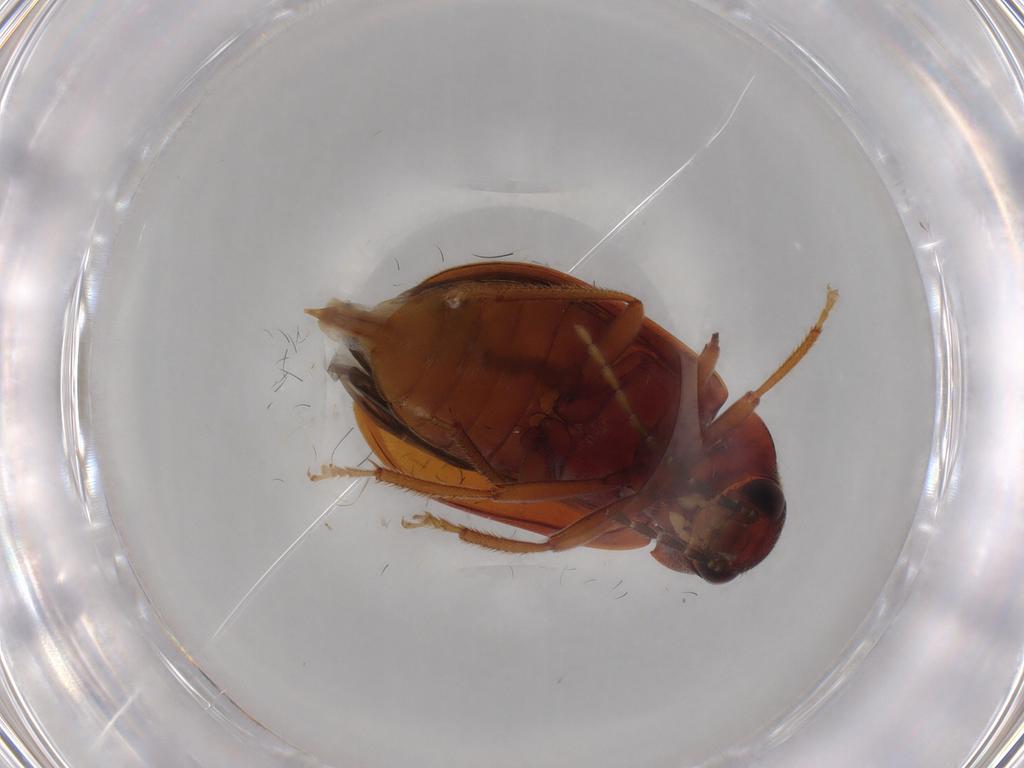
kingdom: Animalia
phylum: Arthropoda
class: Insecta
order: Coleoptera
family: Ptilodactylidae
